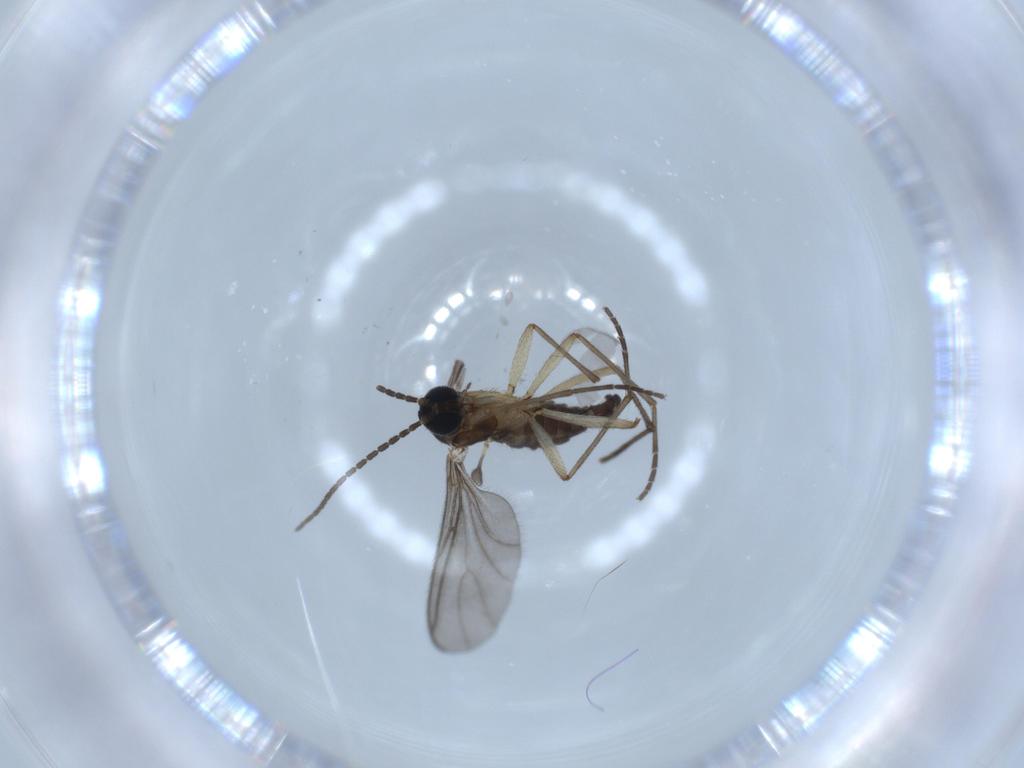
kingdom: Animalia
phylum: Arthropoda
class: Insecta
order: Diptera
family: Sciaridae
